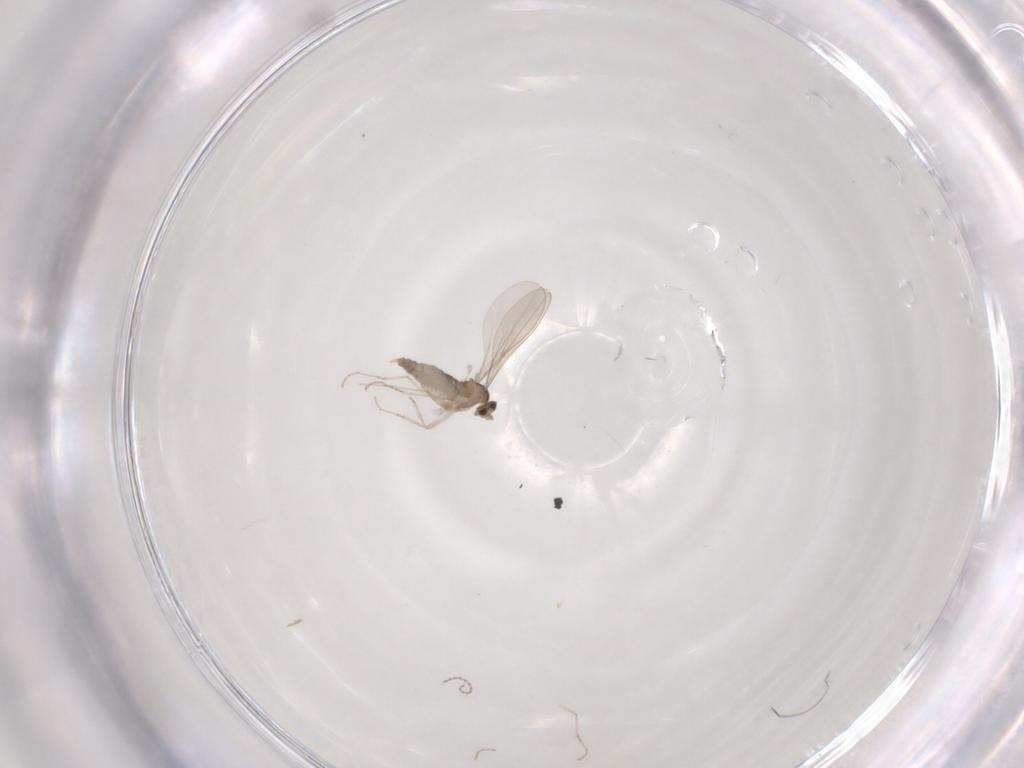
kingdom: Animalia
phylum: Arthropoda
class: Insecta
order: Diptera
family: Cecidomyiidae
